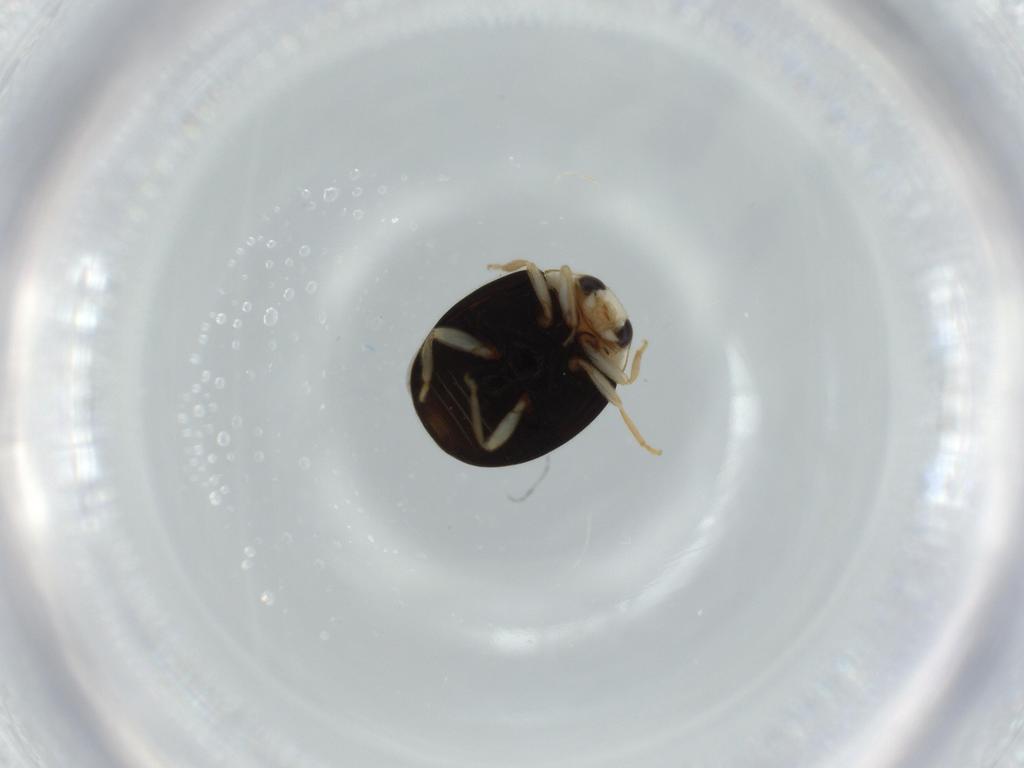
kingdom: Animalia
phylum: Arthropoda
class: Insecta
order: Coleoptera
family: Coccinellidae
